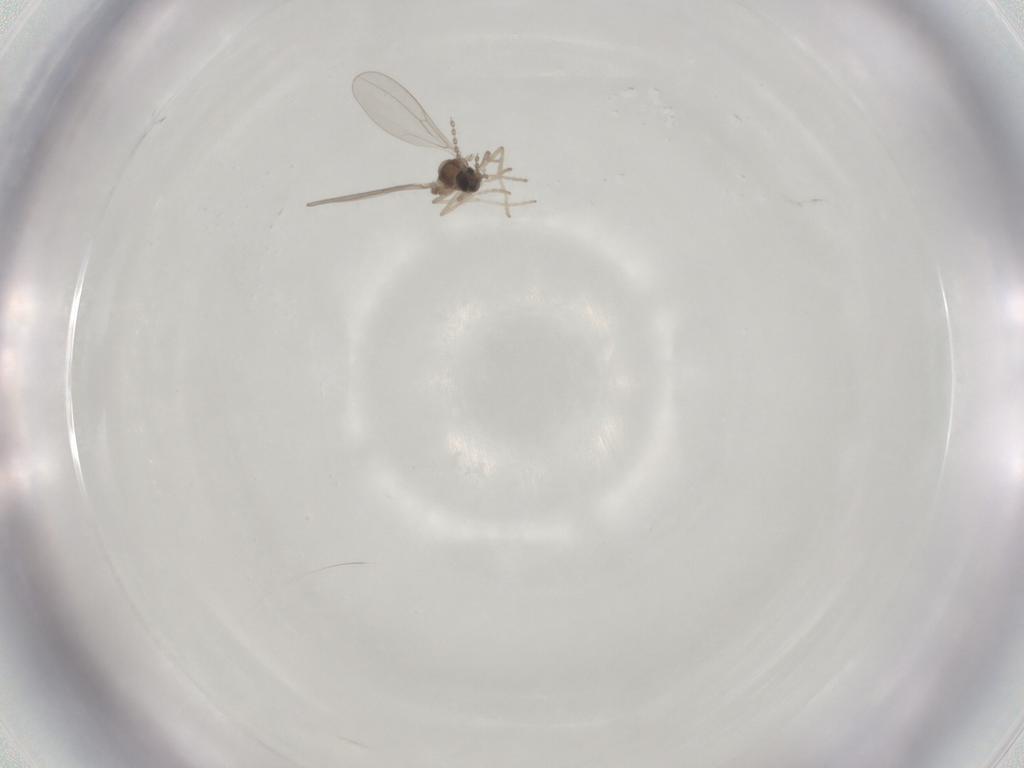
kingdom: Animalia
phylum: Arthropoda
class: Insecta
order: Diptera
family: Cecidomyiidae
